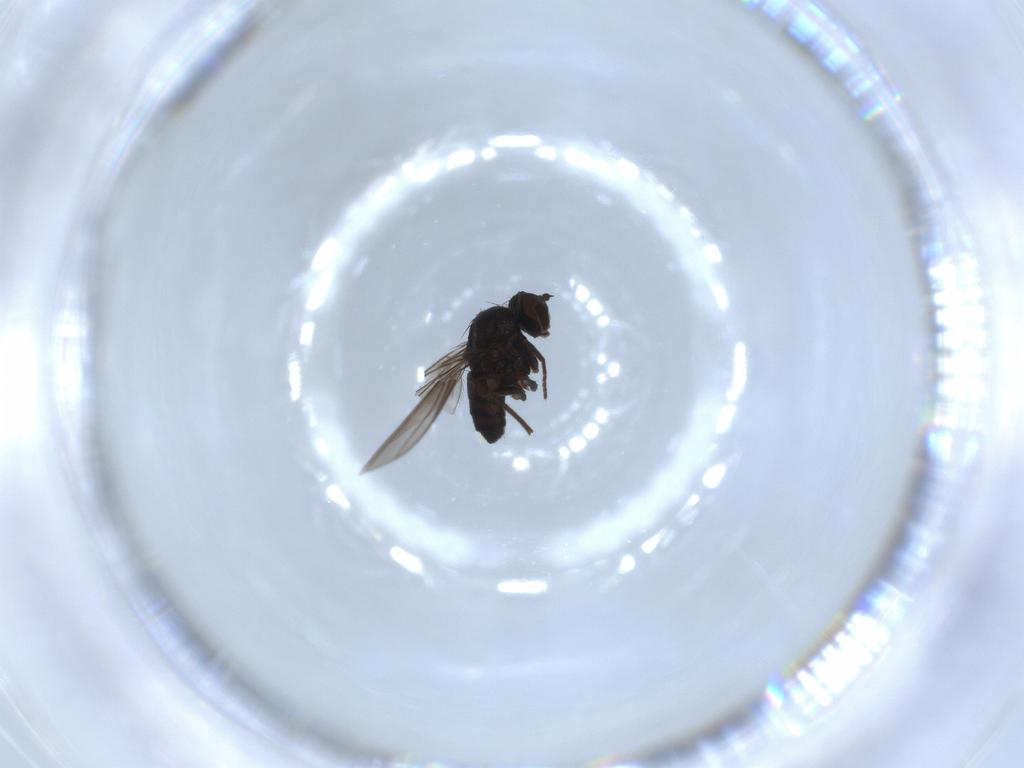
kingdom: Animalia
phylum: Arthropoda
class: Insecta
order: Diptera
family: Dolichopodidae
